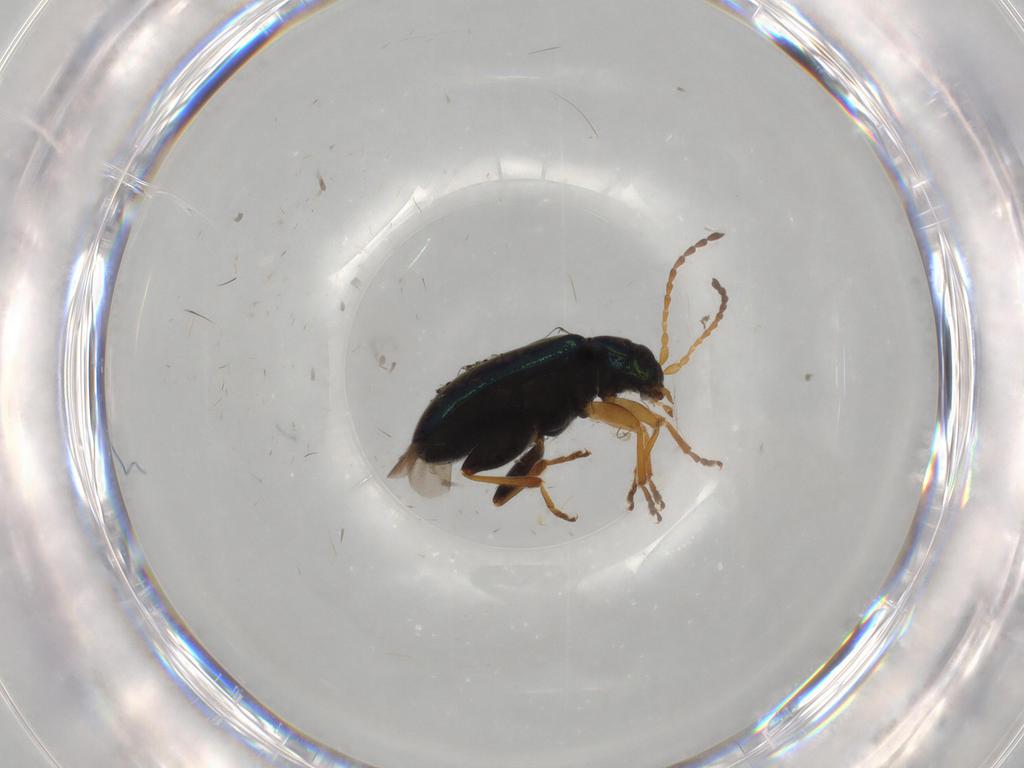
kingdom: Animalia
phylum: Arthropoda
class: Insecta
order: Coleoptera
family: Chrysomelidae
